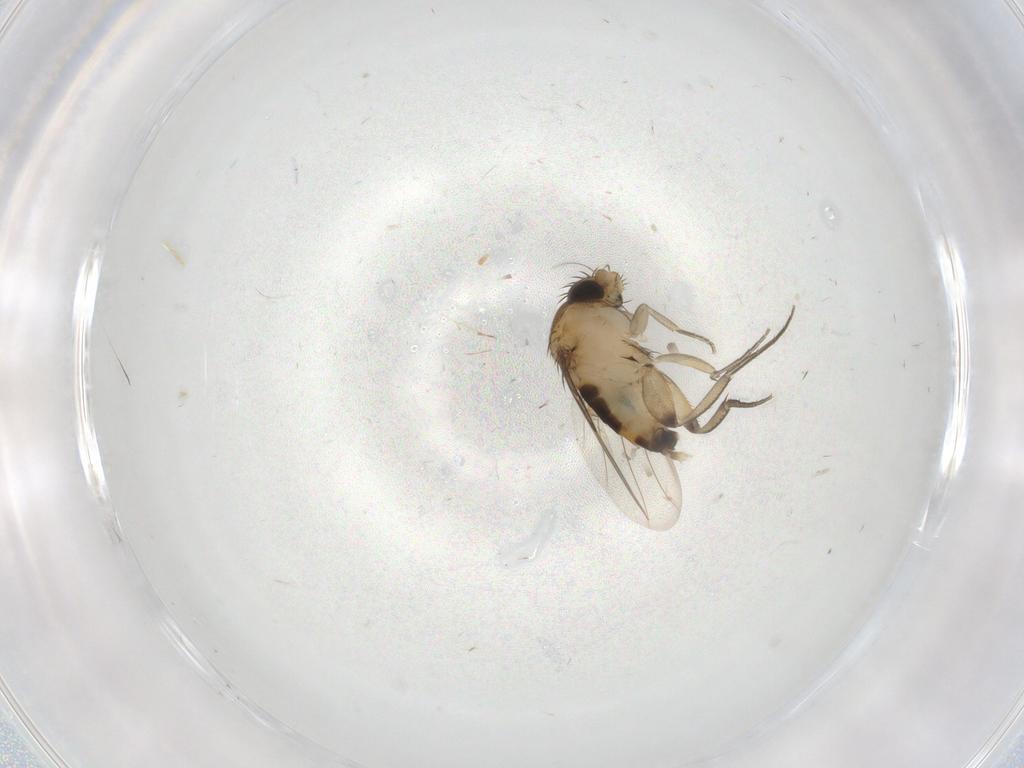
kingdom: Animalia
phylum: Arthropoda
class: Insecta
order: Diptera
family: Phoridae
